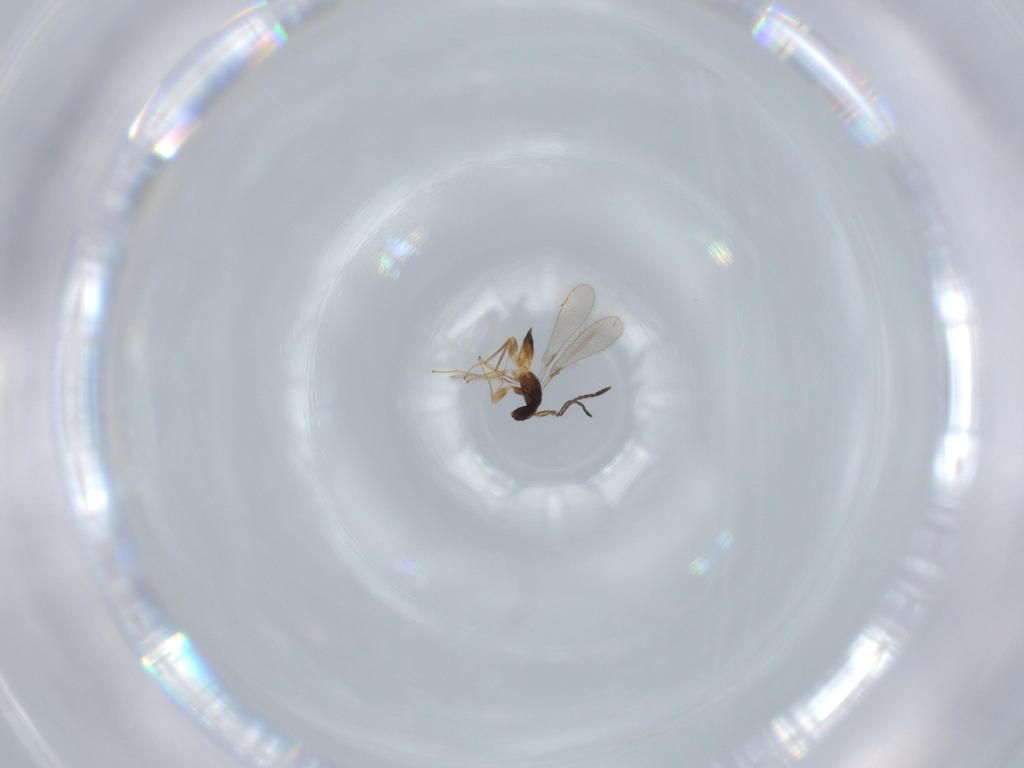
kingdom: Animalia
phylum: Arthropoda
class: Insecta
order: Hymenoptera
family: Mymaridae
